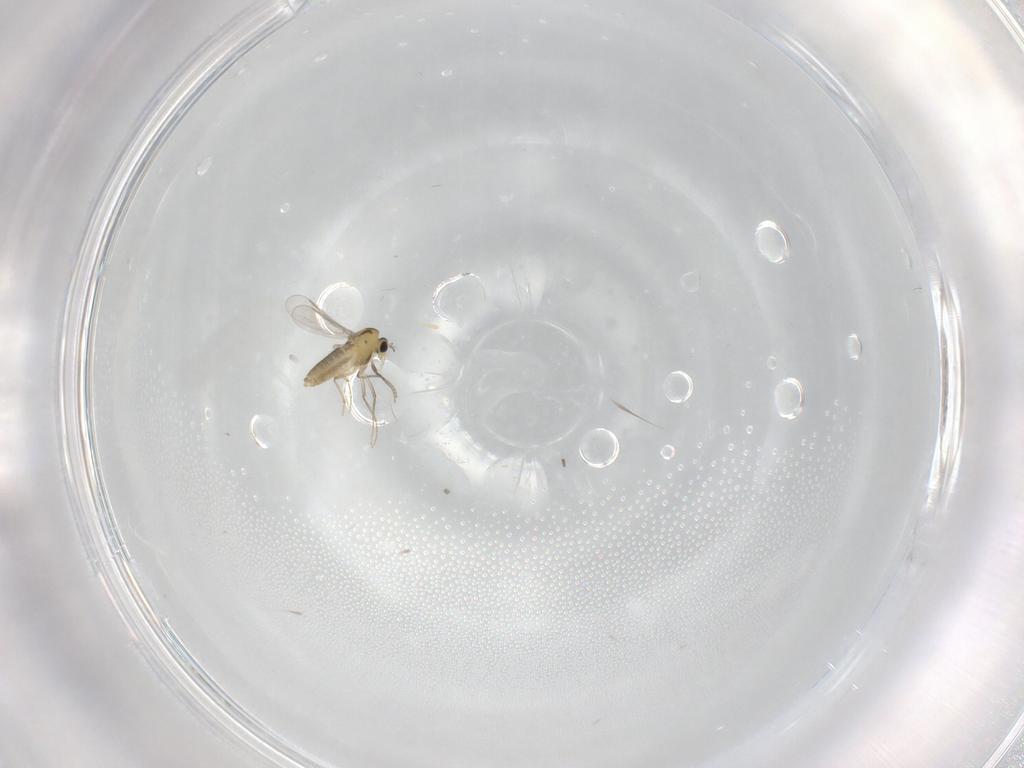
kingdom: Animalia
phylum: Arthropoda
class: Insecta
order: Diptera
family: Chironomidae
